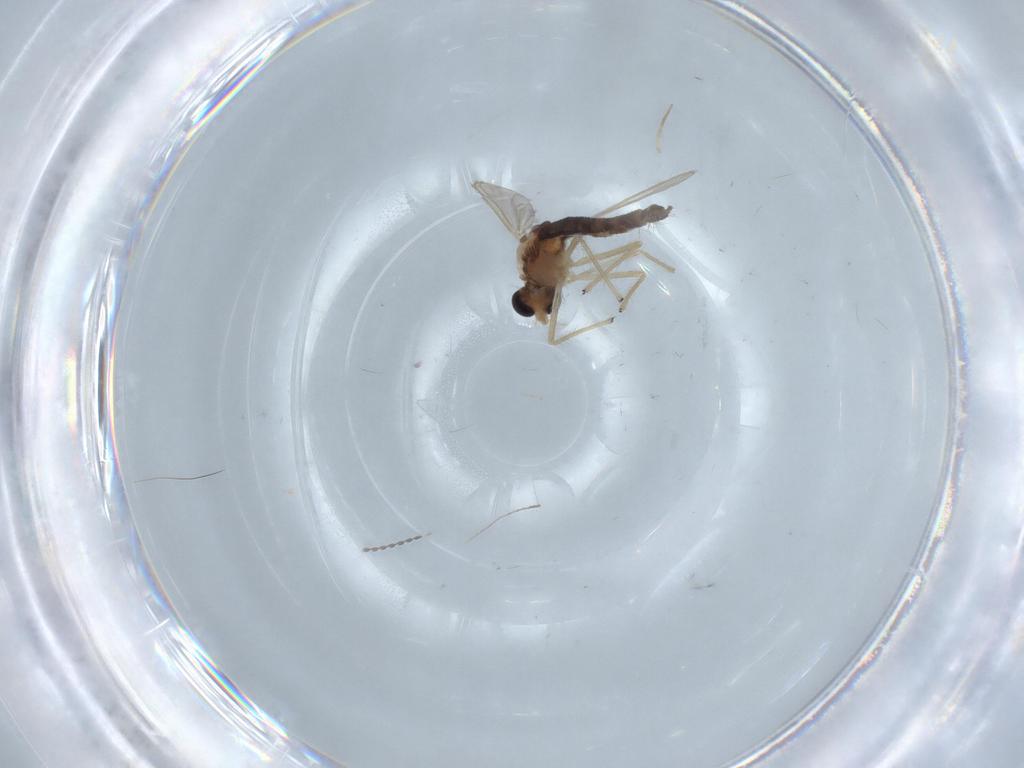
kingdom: Animalia
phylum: Arthropoda
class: Insecta
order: Diptera
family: Chironomidae
